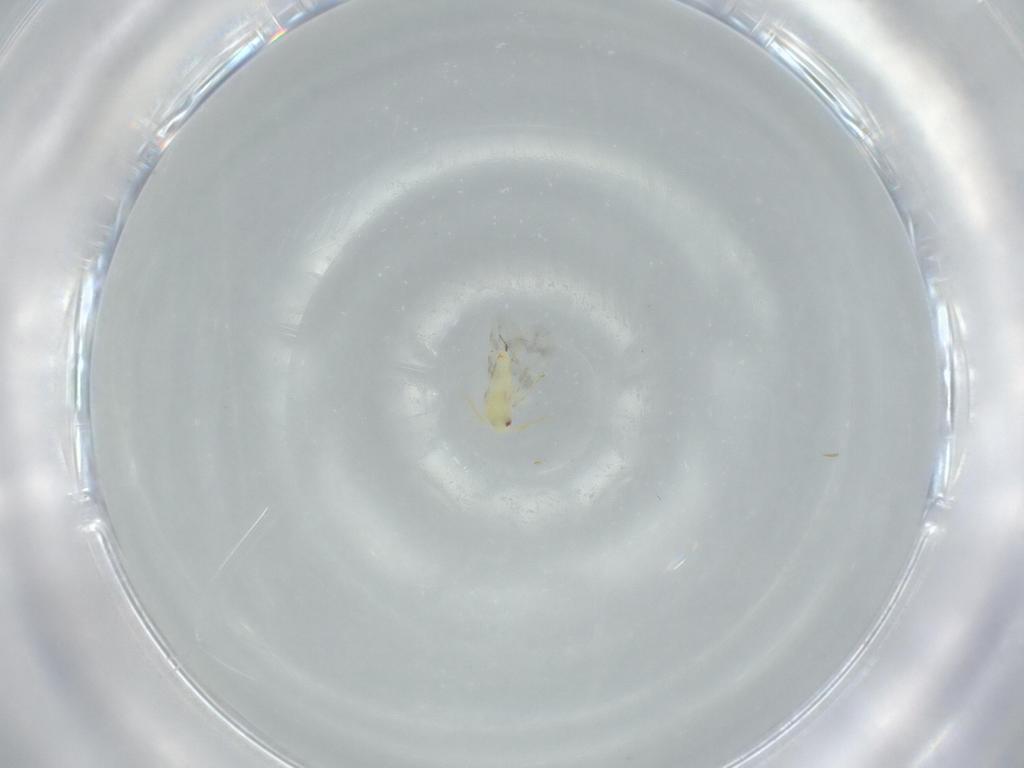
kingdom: Animalia
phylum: Arthropoda
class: Insecta
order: Hemiptera
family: Aleyrodidae
